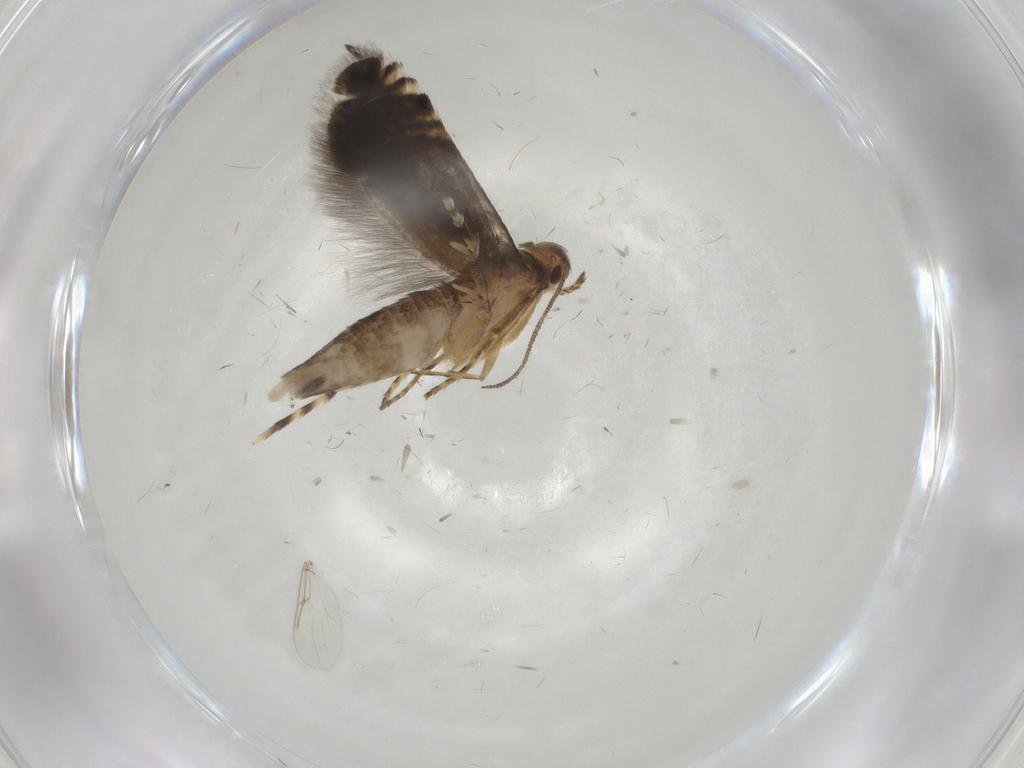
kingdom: Animalia
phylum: Arthropoda
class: Insecta
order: Lepidoptera
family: Glyphipterigidae
